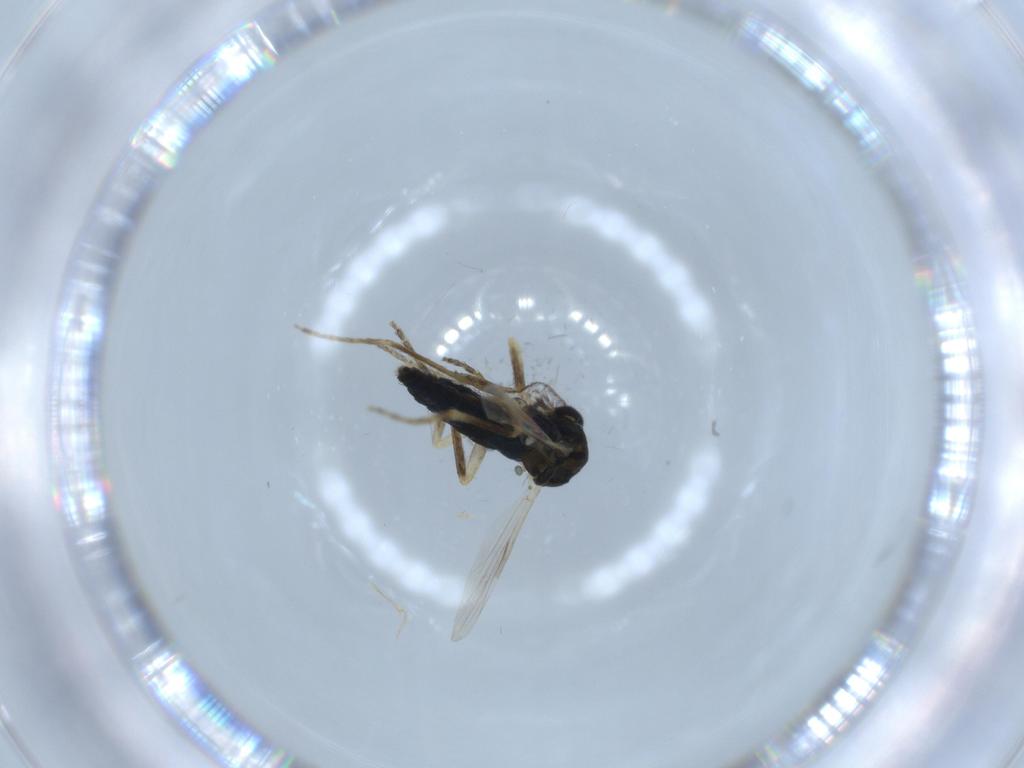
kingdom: Animalia
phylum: Arthropoda
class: Insecta
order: Diptera
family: Ceratopogonidae
